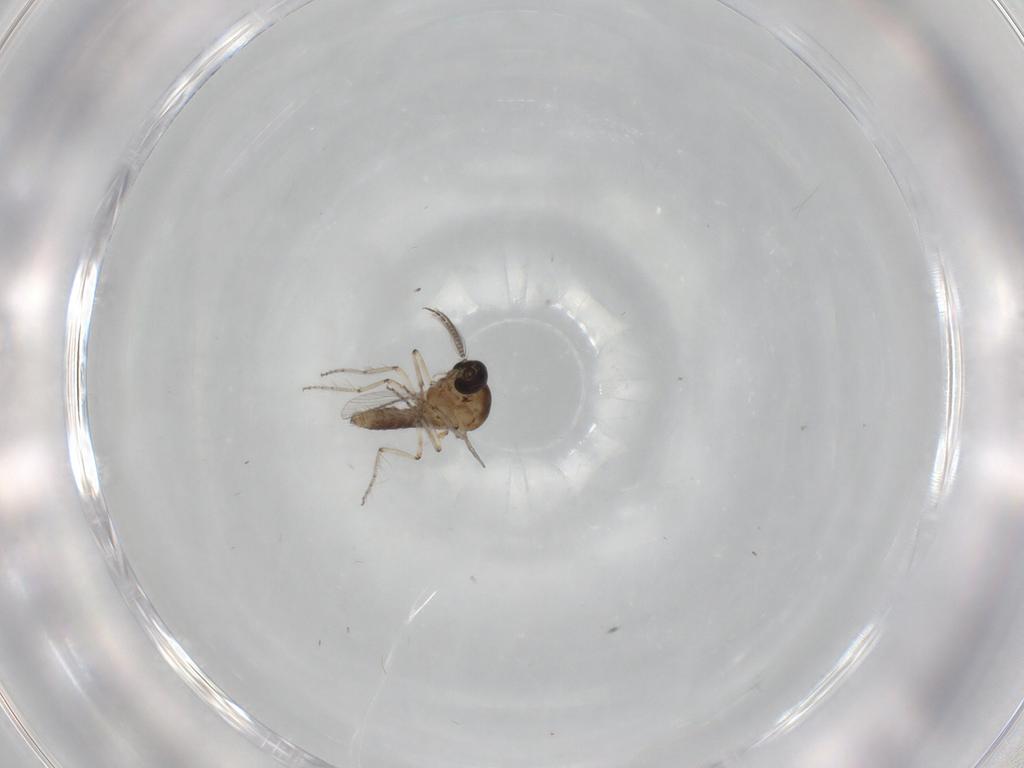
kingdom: Animalia
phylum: Arthropoda
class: Insecta
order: Diptera
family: Ceratopogonidae
